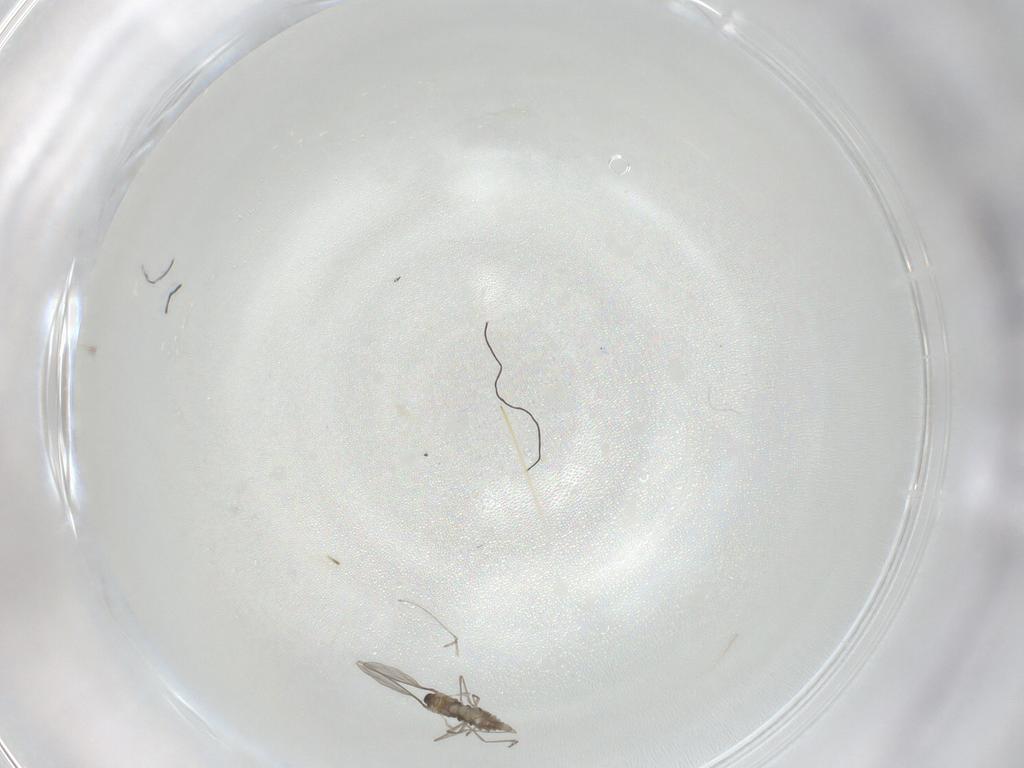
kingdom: Animalia
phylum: Arthropoda
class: Insecta
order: Diptera
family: Cecidomyiidae
